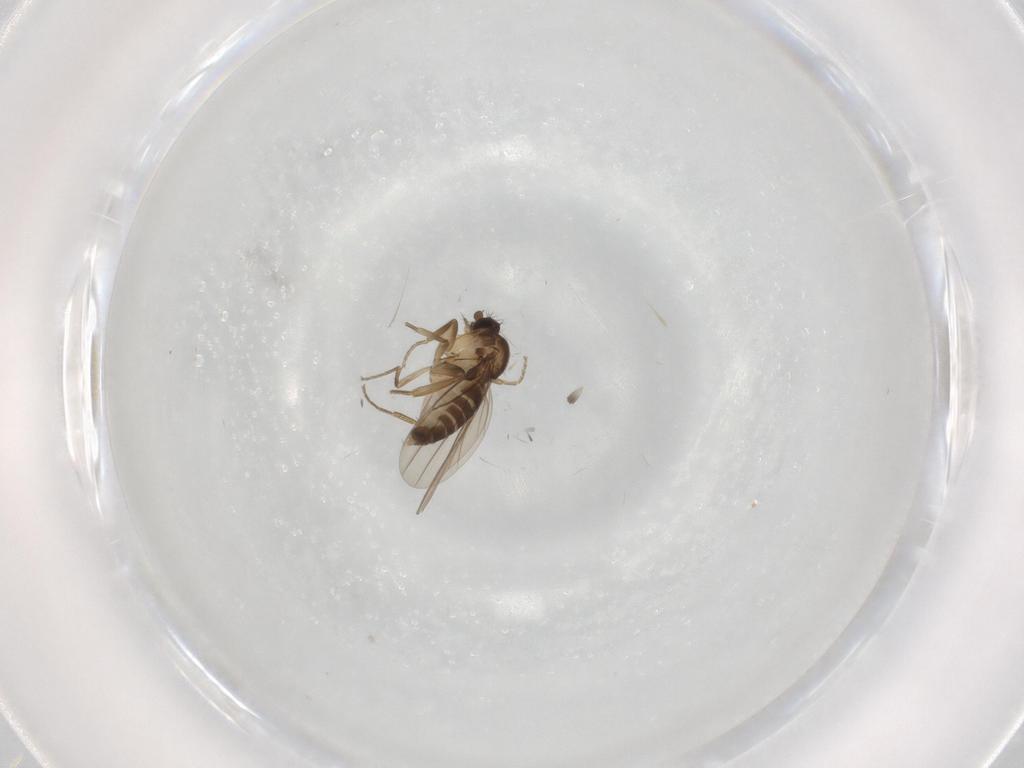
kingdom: Animalia
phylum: Arthropoda
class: Insecta
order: Diptera
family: Phoridae
